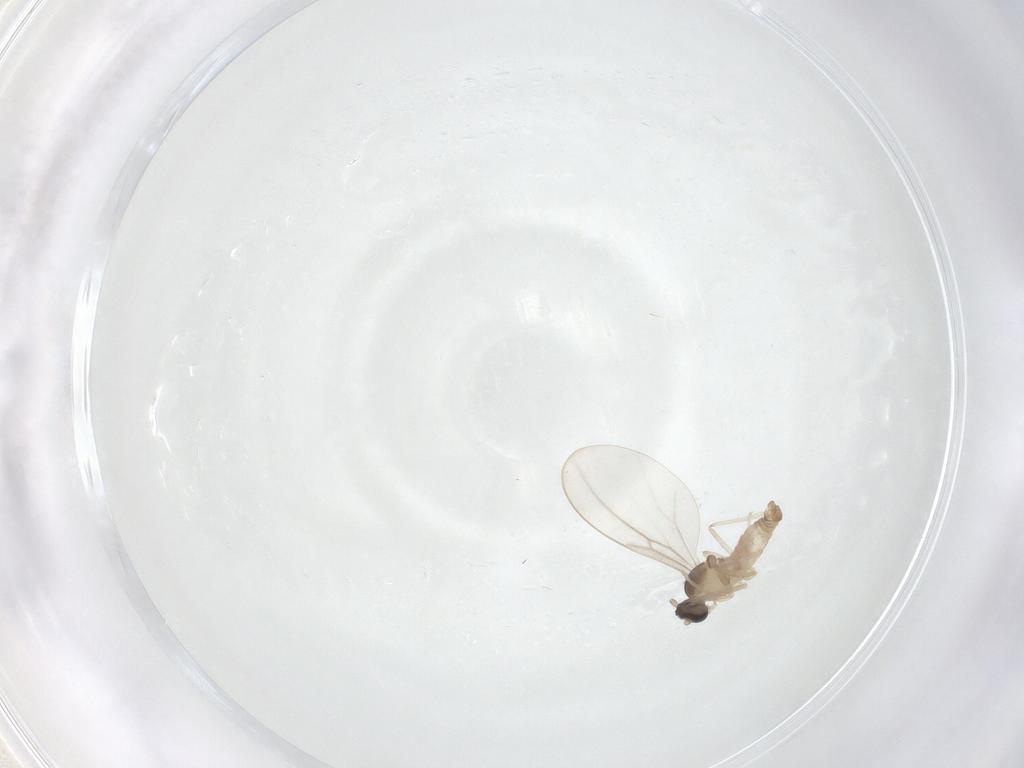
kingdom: Animalia
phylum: Arthropoda
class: Insecta
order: Diptera
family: Cecidomyiidae
